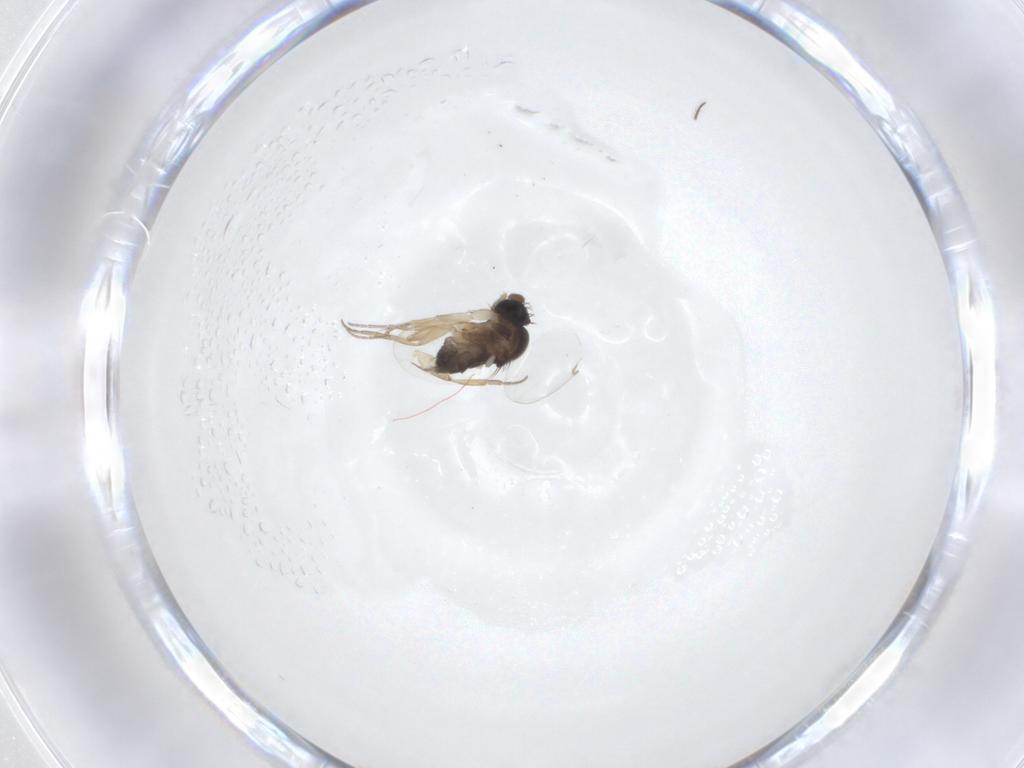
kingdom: Animalia
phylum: Arthropoda
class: Insecta
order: Diptera
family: Phoridae
